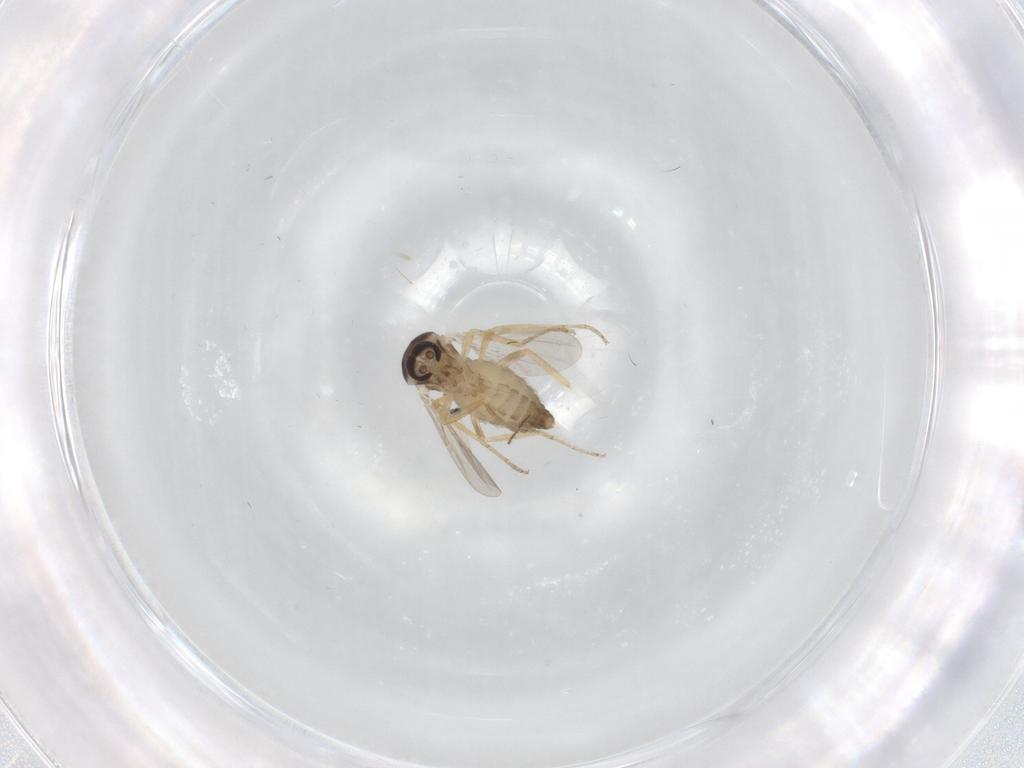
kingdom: Animalia
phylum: Arthropoda
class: Insecta
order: Diptera
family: Ceratopogonidae
